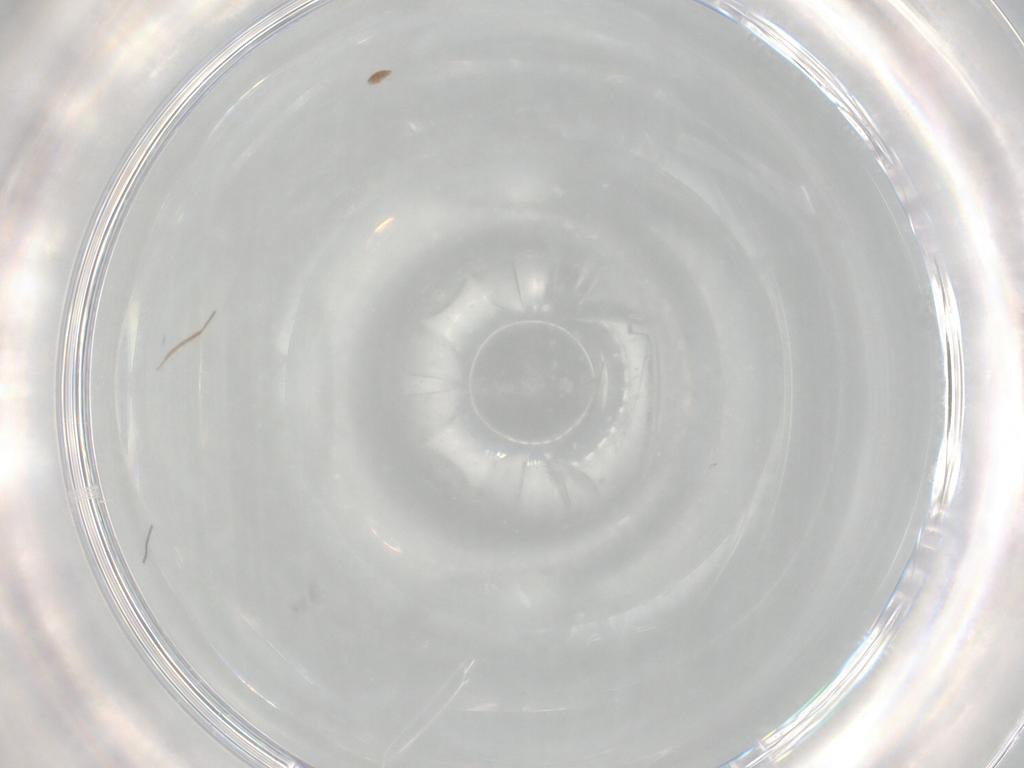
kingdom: Animalia
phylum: Arthropoda
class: Arachnida
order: Trombidiformes
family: Scutacaridae
